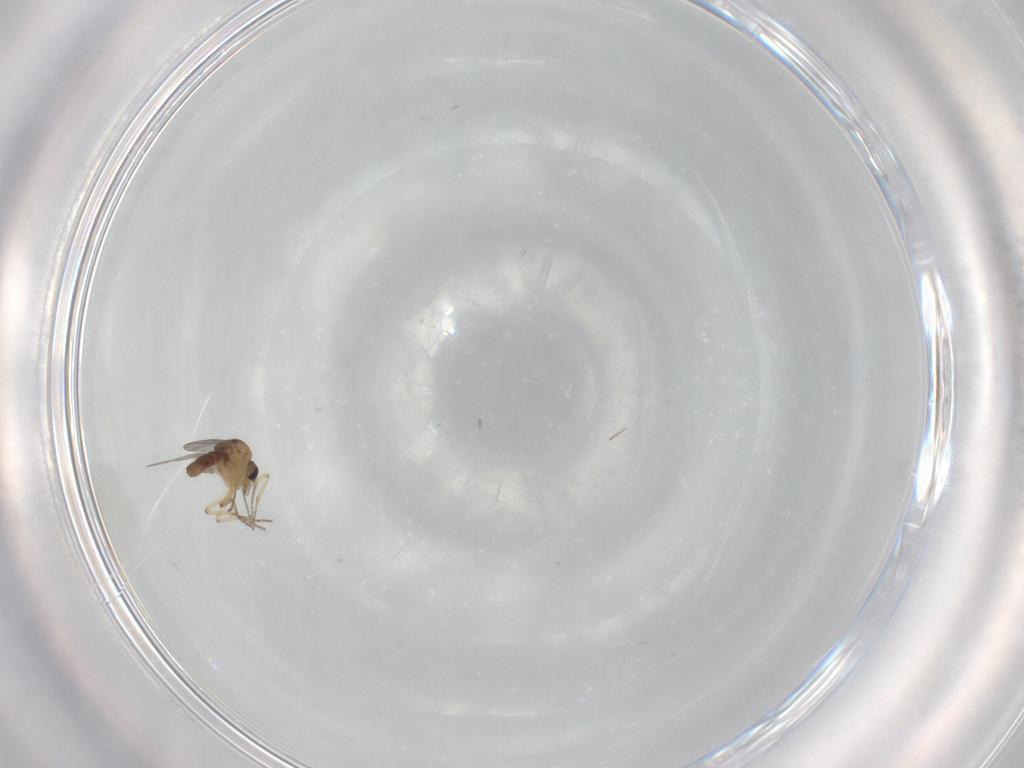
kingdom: Animalia
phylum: Arthropoda
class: Insecta
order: Diptera
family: Ceratopogonidae
